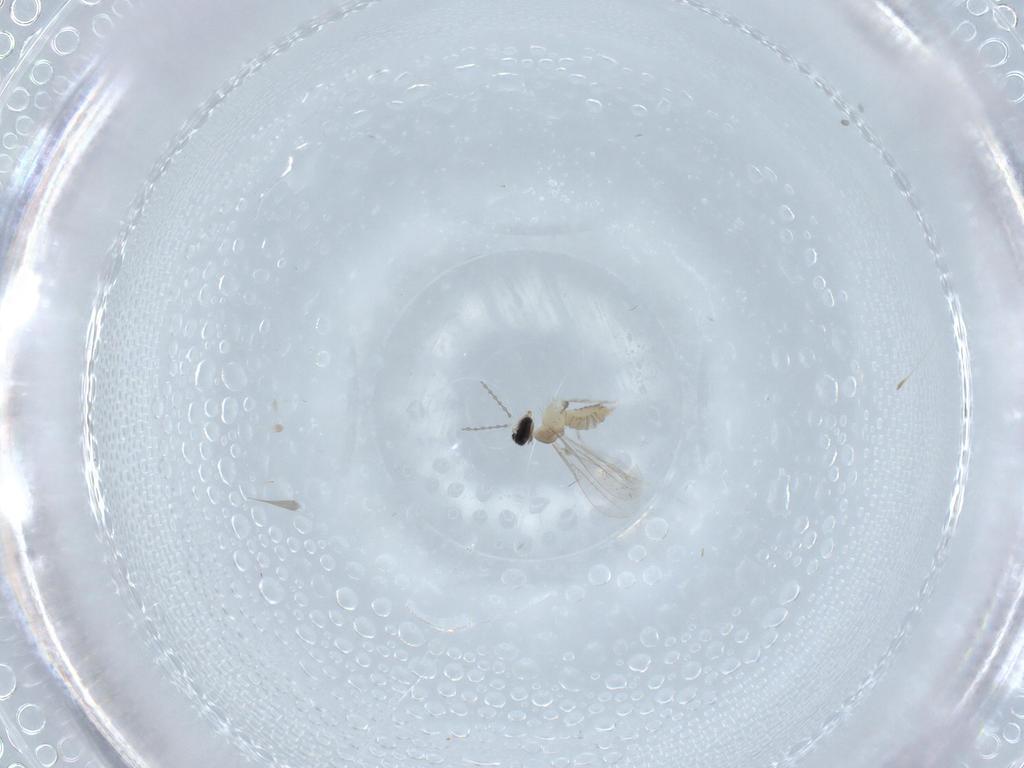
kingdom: Animalia
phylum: Arthropoda
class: Insecta
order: Diptera
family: Cecidomyiidae
